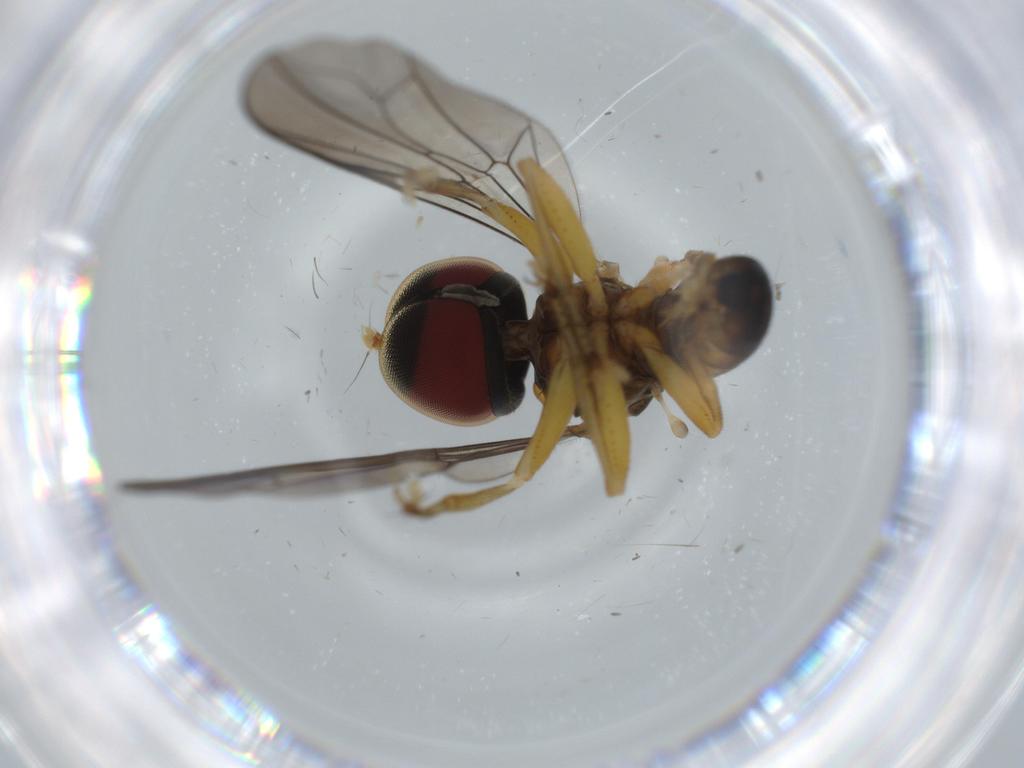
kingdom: Animalia
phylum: Arthropoda
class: Insecta
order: Diptera
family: Pipunculidae
